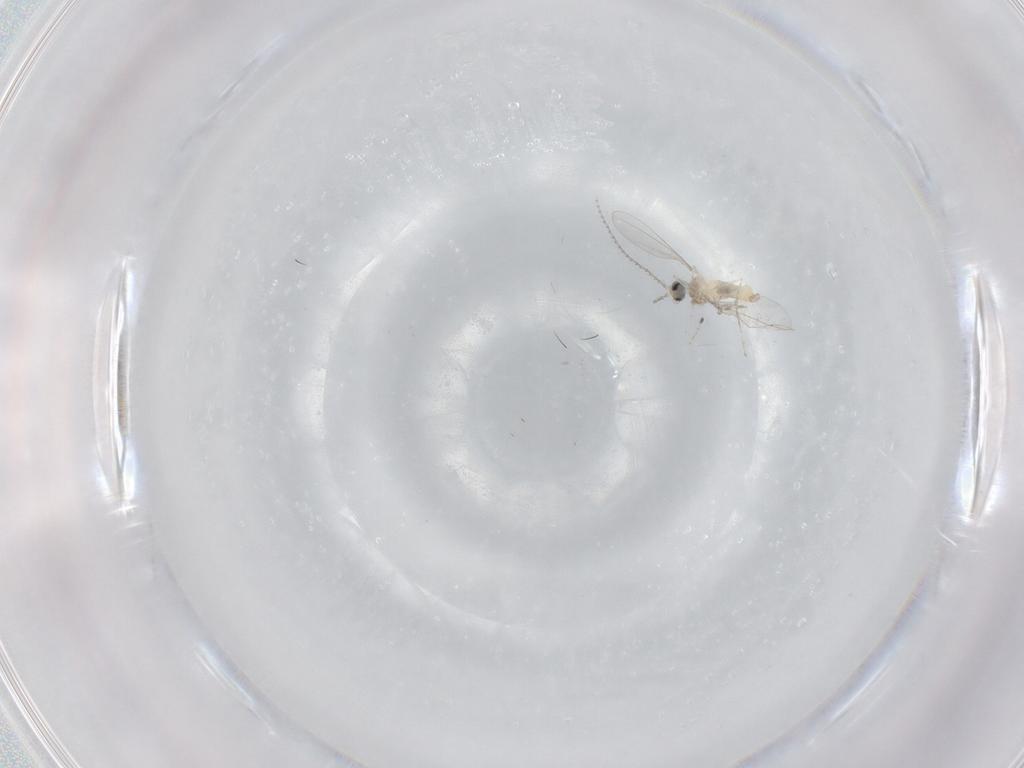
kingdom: Animalia
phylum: Arthropoda
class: Insecta
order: Diptera
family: Cecidomyiidae
